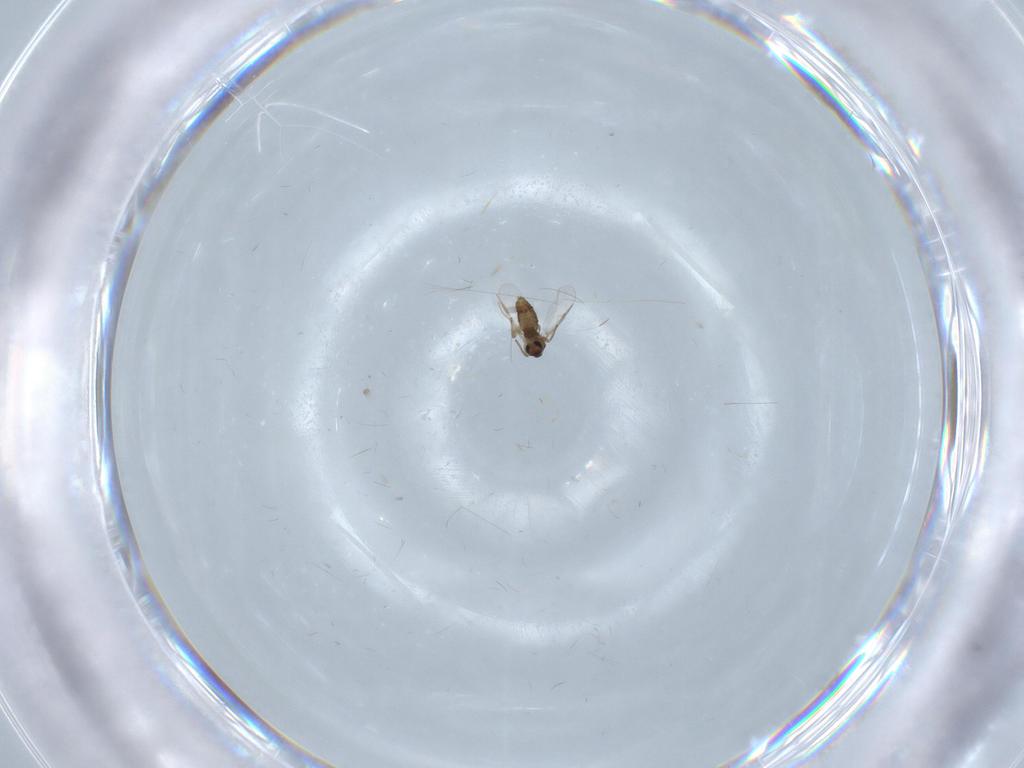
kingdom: Animalia
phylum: Arthropoda
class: Insecta
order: Diptera
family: Chironomidae
